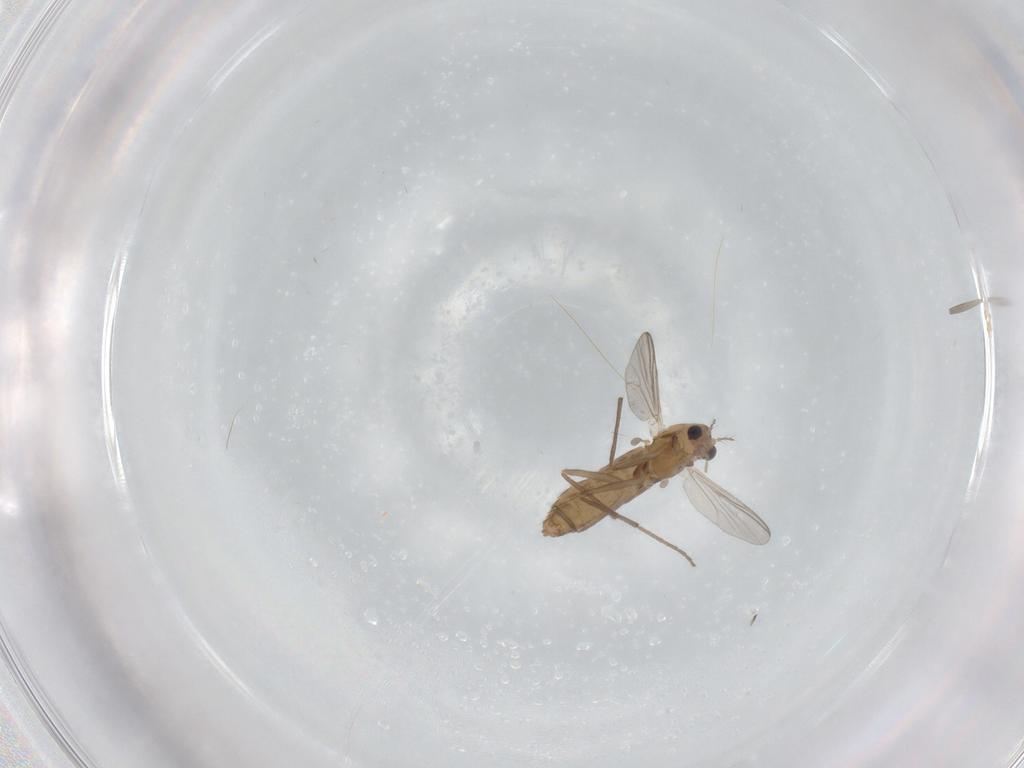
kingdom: Animalia
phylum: Arthropoda
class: Insecta
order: Diptera
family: Chironomidae
